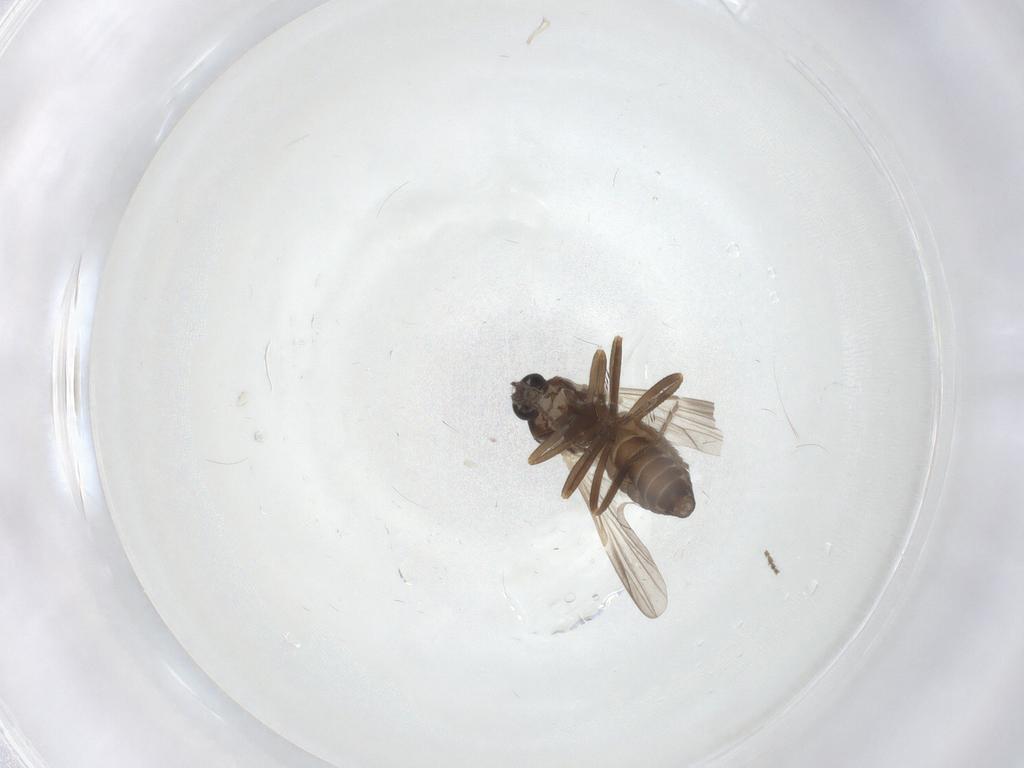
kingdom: Animalia
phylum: Arthropoda
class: Insecta
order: Diptera
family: Ceratopogonidae
